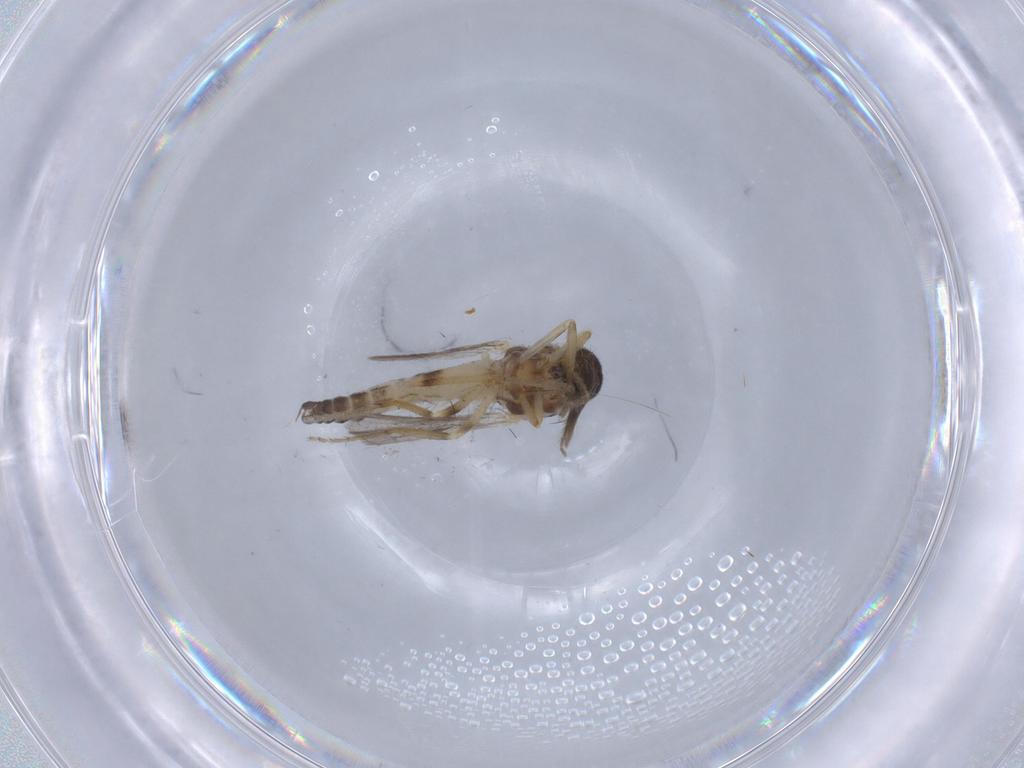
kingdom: Animalia
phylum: Arthropoda
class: Insecta
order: Diptera
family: Ceratopogonidae
